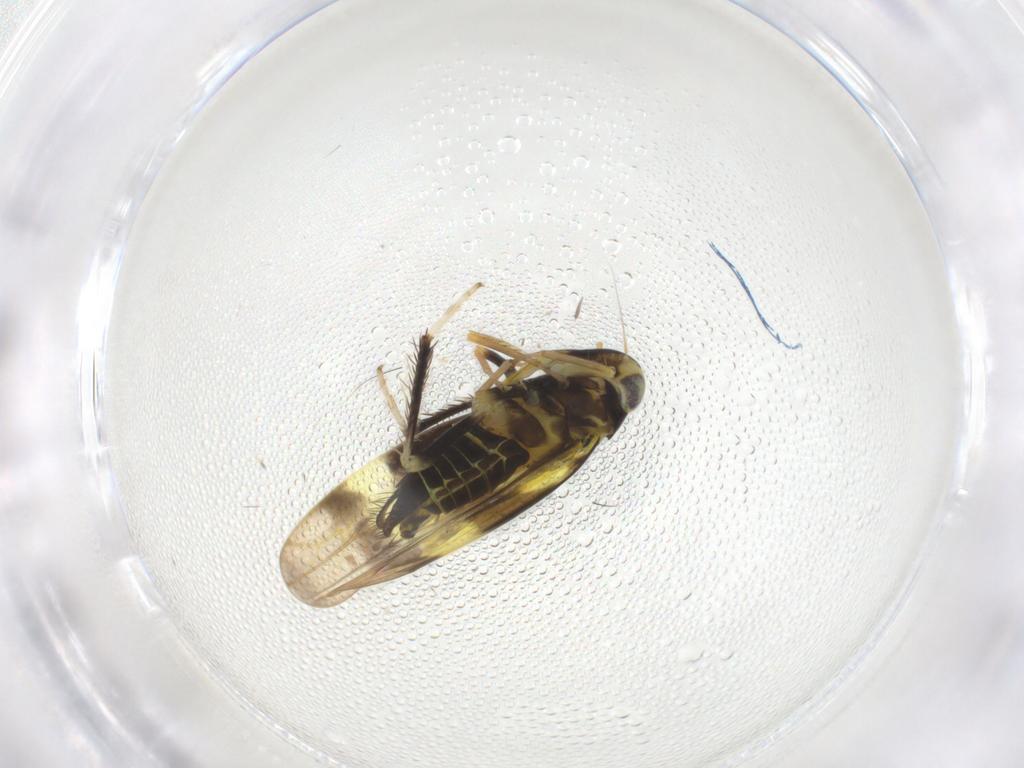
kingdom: Animalia
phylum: Arthropoda
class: Insecta
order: Hemiptera
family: Cicadellidae
